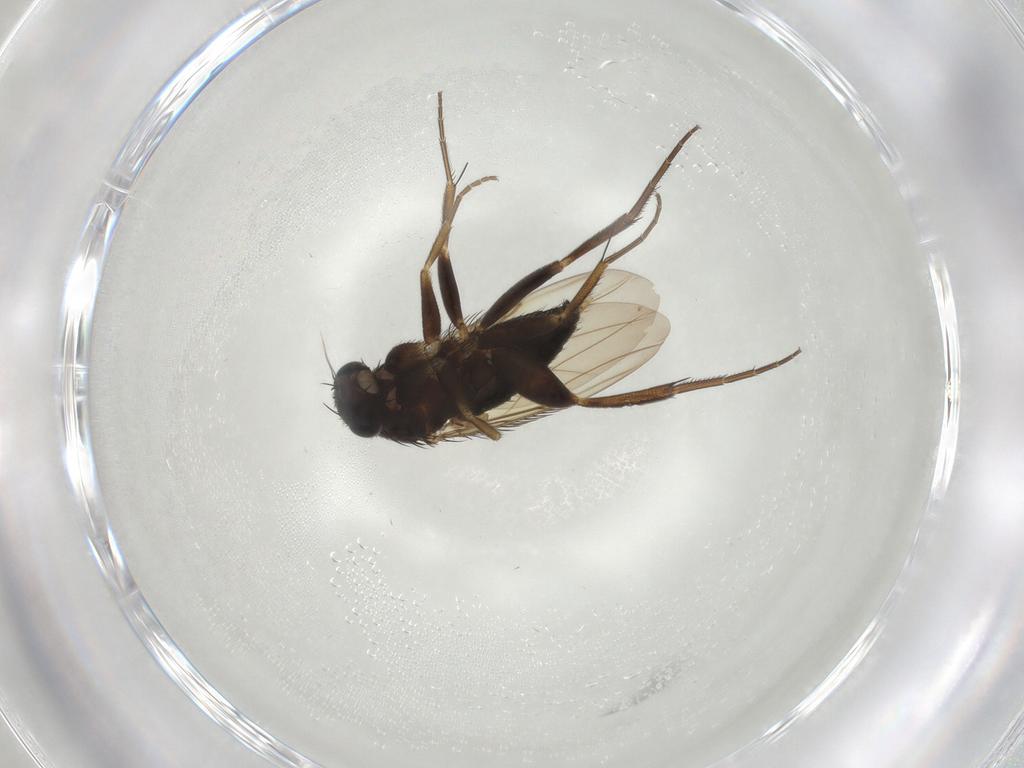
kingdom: Animalia
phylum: Arthropoda
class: Insecta
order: Diptera
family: Phoridae
